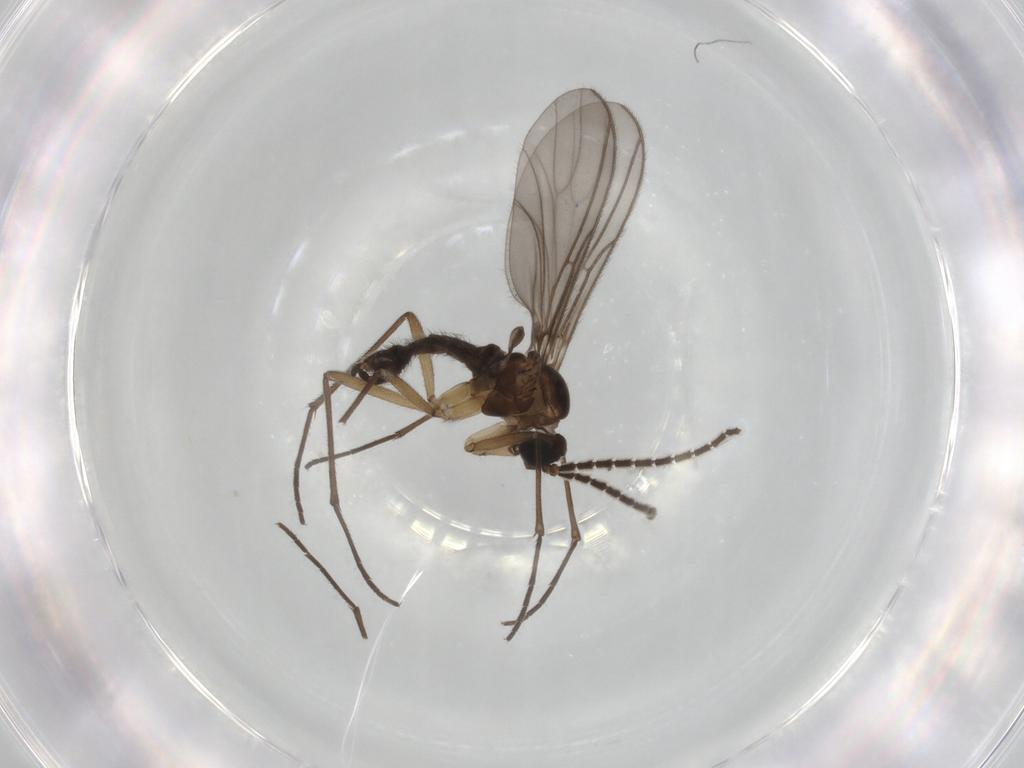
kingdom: Animalia
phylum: Arthropoda
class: Insecta
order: Diptera
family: Sciaridae
